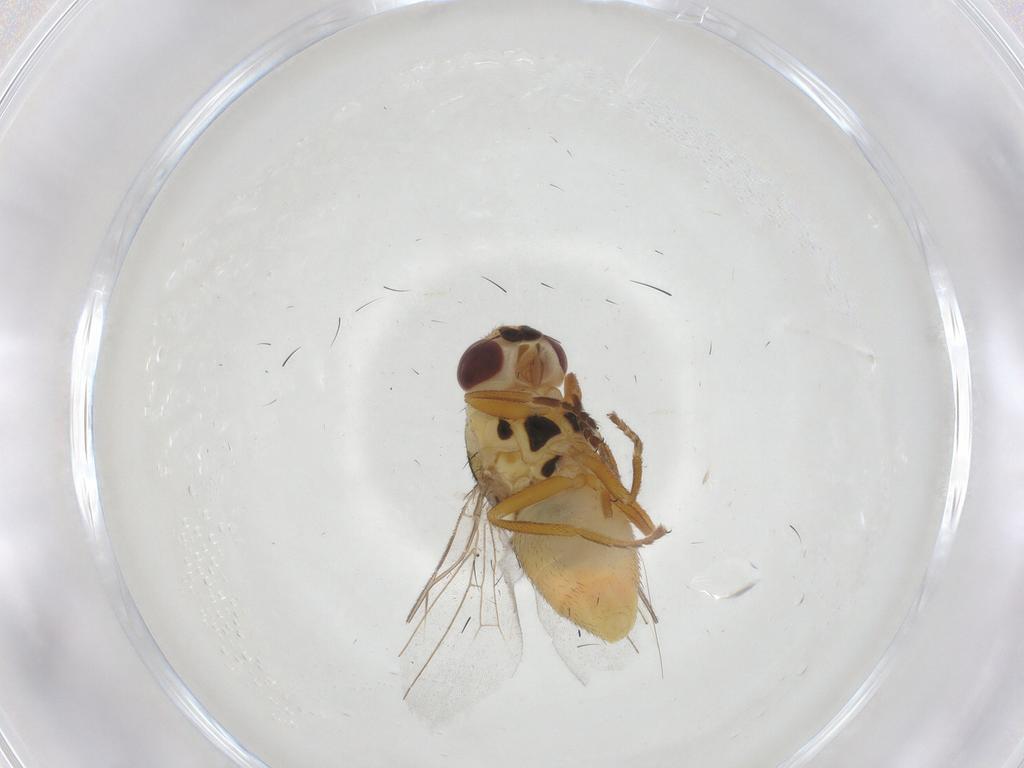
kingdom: Animalia
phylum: Arthropoda
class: Insecta
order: Diptera
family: Chloropidae
